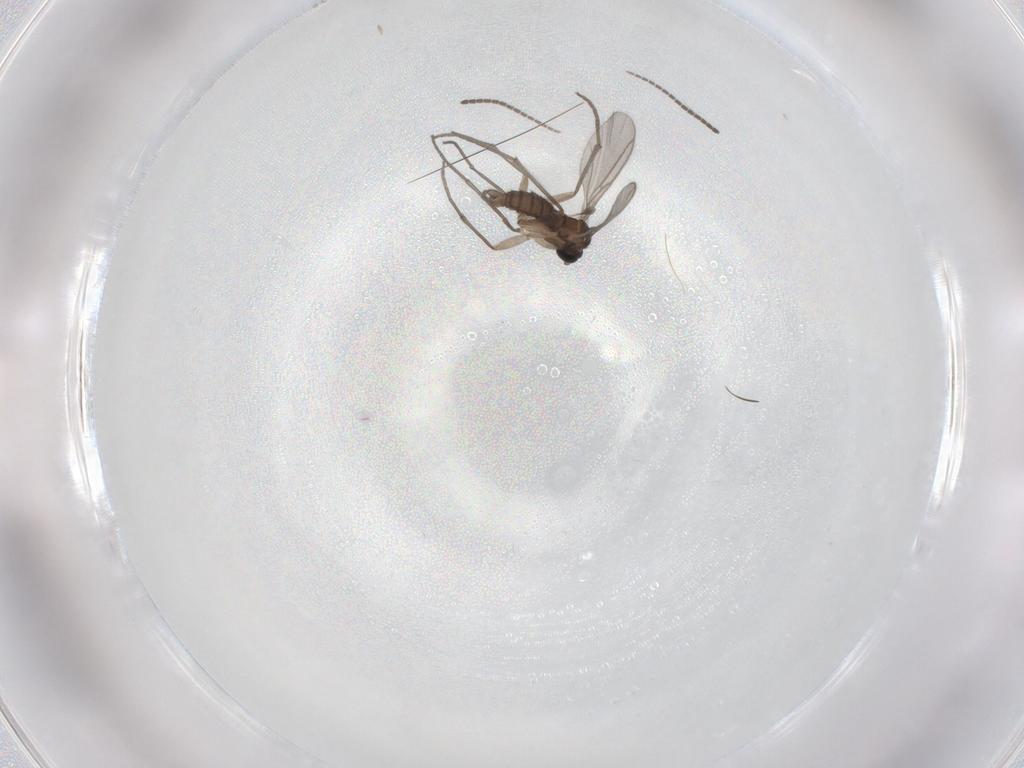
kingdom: Animalia
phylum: Arthropoda
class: Insecta
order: Diptera
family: Sciaridae
